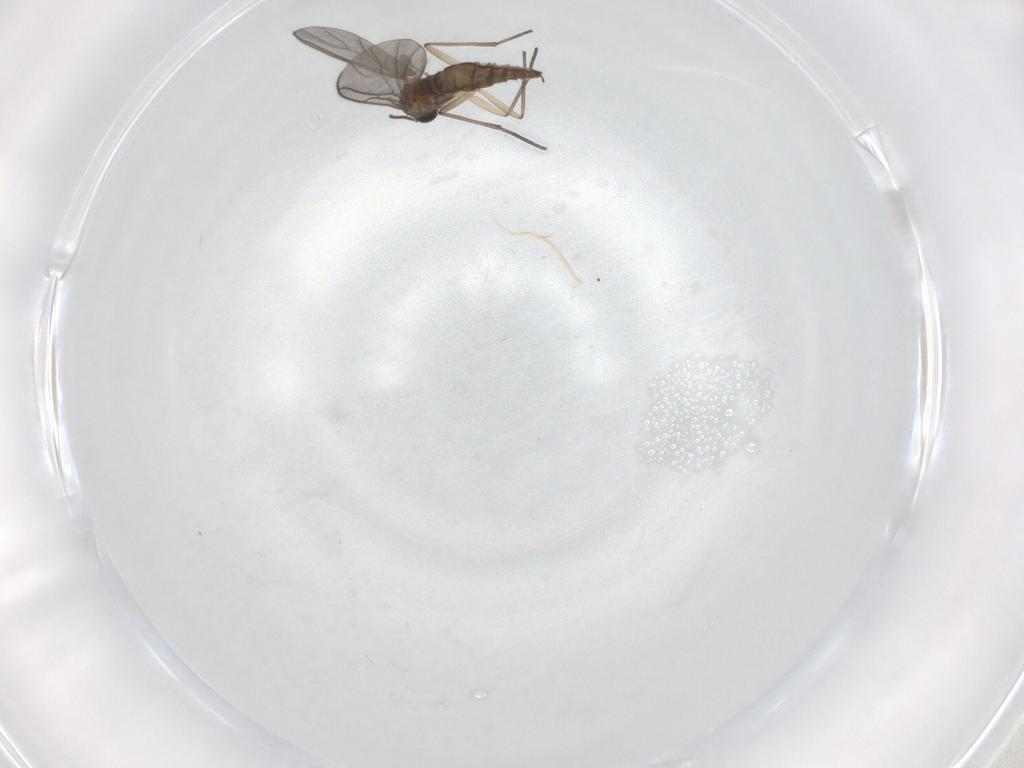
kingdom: Animalia
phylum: Arthropoda
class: Insecta
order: Diptera
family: Sciaridae
